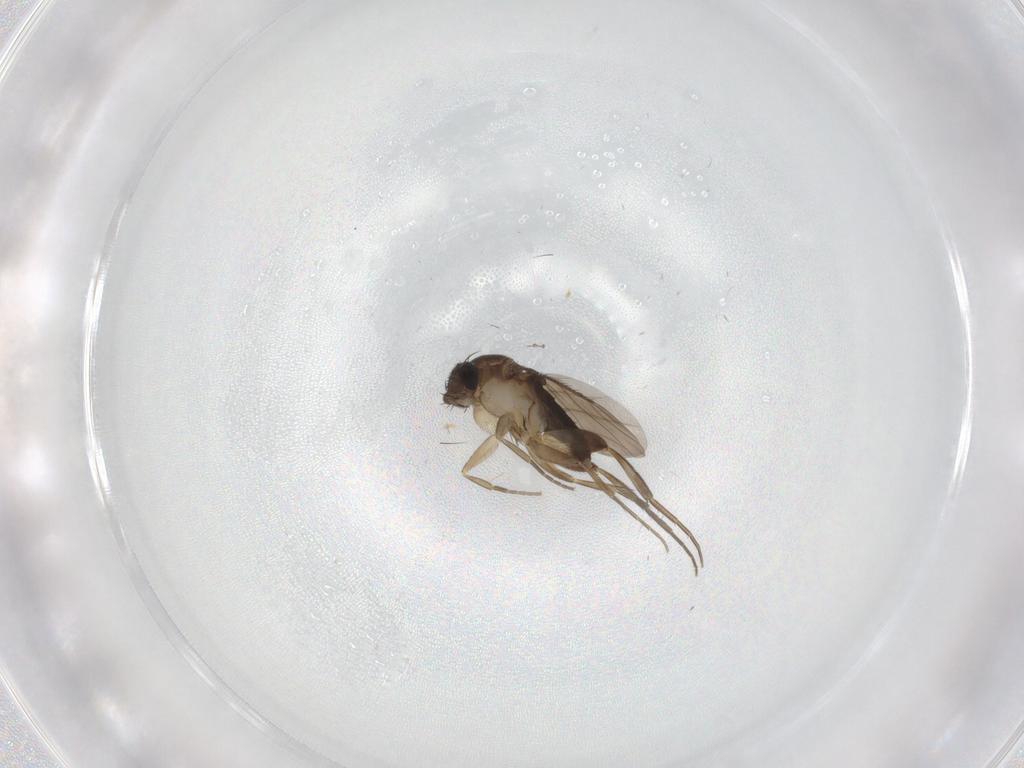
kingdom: Animalia
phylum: Arthropoda
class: Insecta
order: Diptera
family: Phoridae
